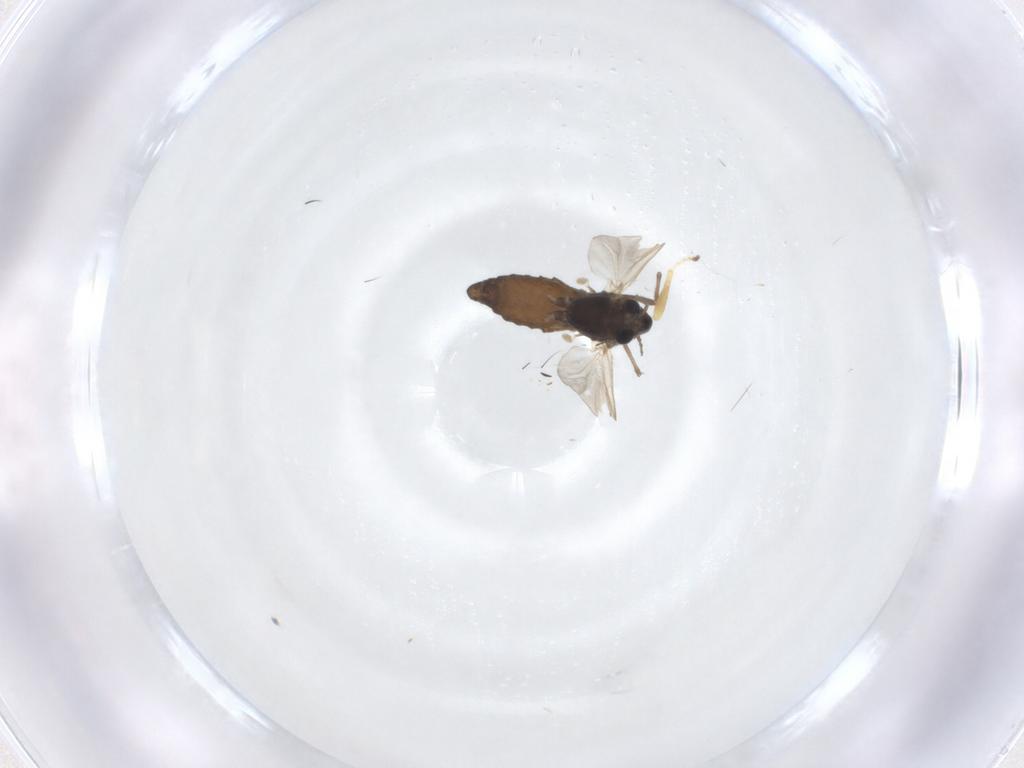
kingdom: Animalia
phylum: Arthropoda
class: Insecta
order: Diptera
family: Chironomidae
